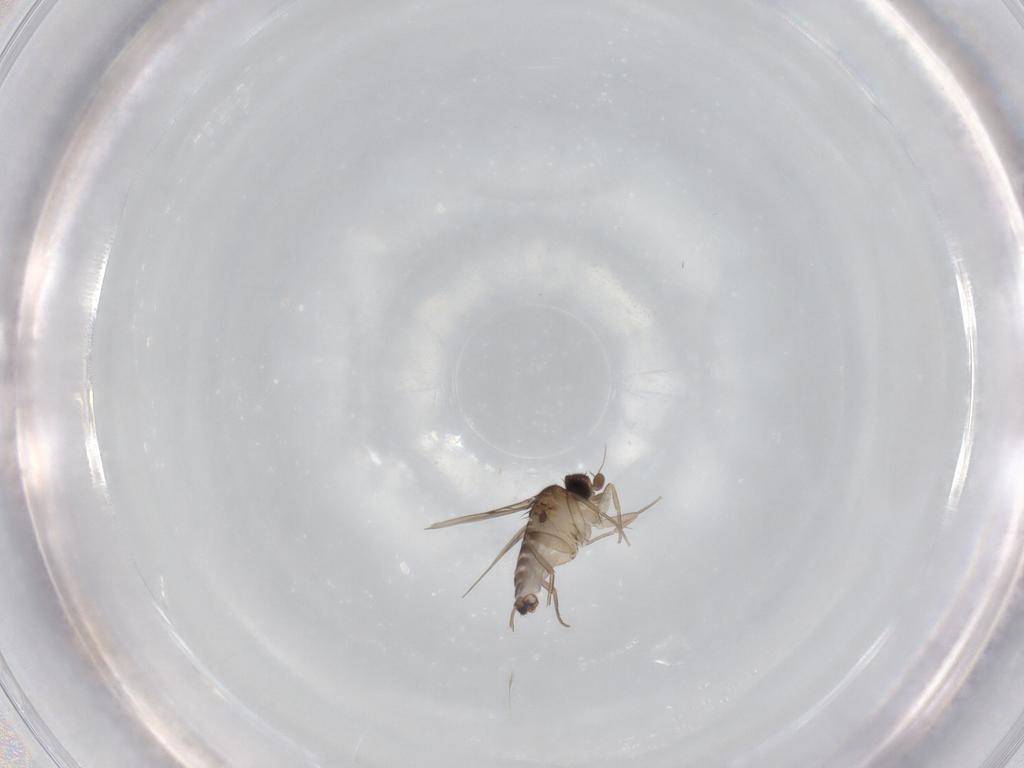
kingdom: Animalia
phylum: Arthropoda
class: Insecta
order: Diptera
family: Phoridae
